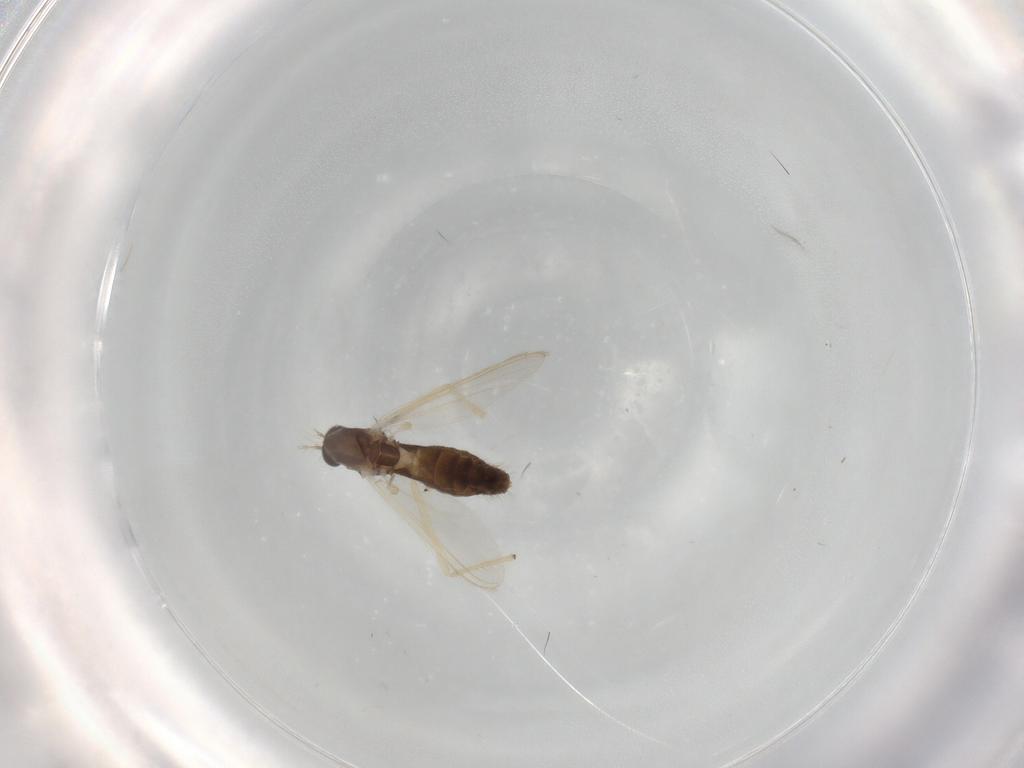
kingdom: Animalia
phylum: Arthropoda
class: Insecta
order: Diptera
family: Chironomidae
